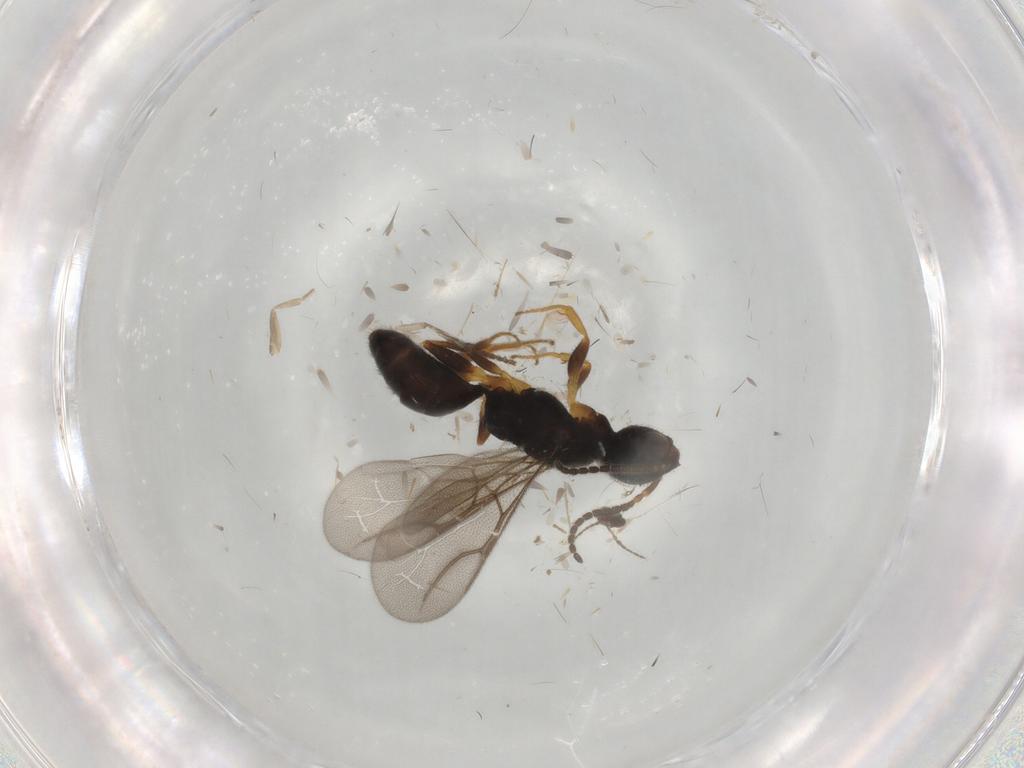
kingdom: Animalia
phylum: Arthropoda
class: Insecta
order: Hymenoptera
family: Bethylidae
